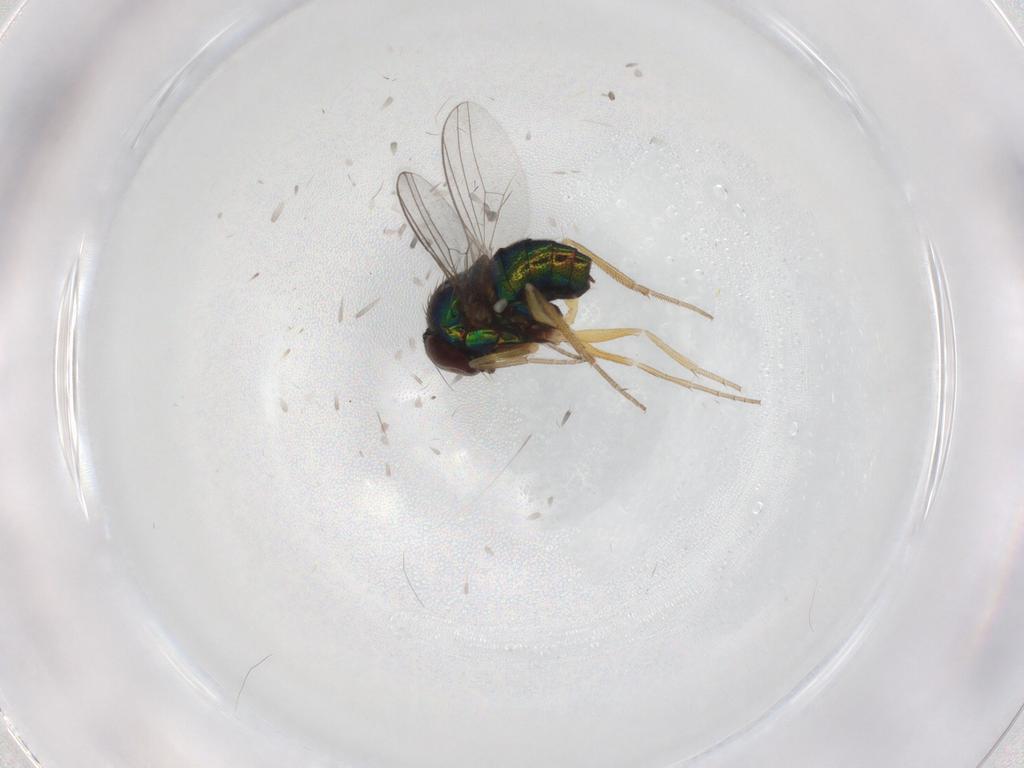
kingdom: Animalia
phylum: Arthropoda
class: Insecta
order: Diptera
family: Dolichopodidae
